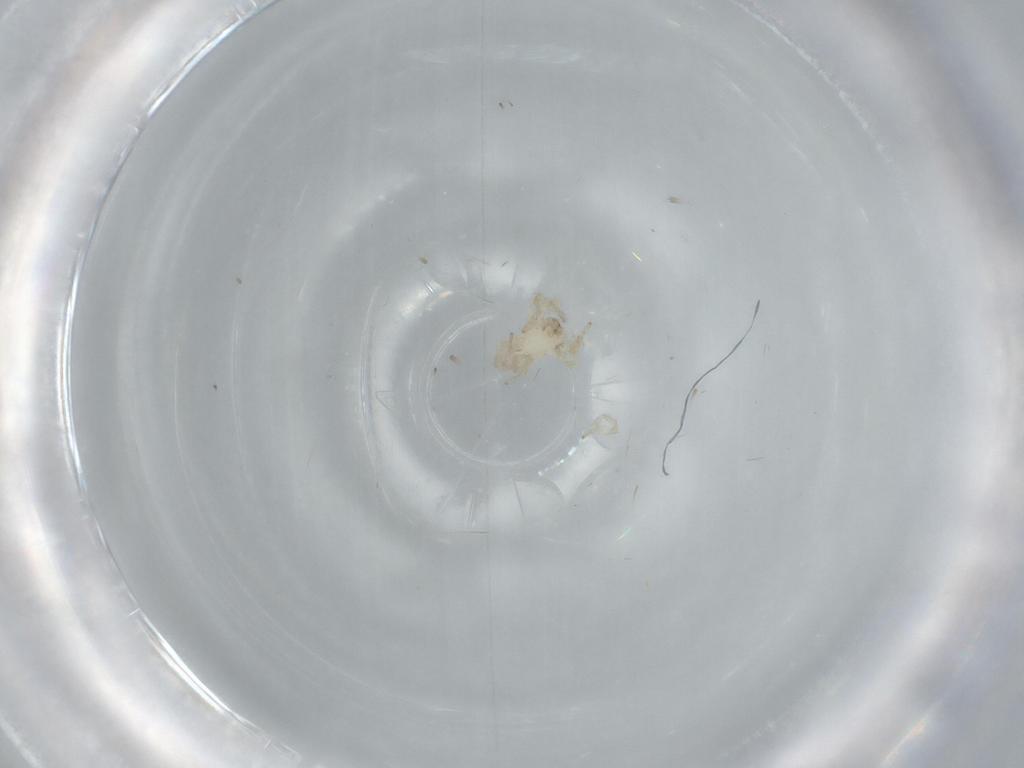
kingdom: Animalia
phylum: Arthropoda
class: Arachnida
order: Araneae
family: Oonopidae
